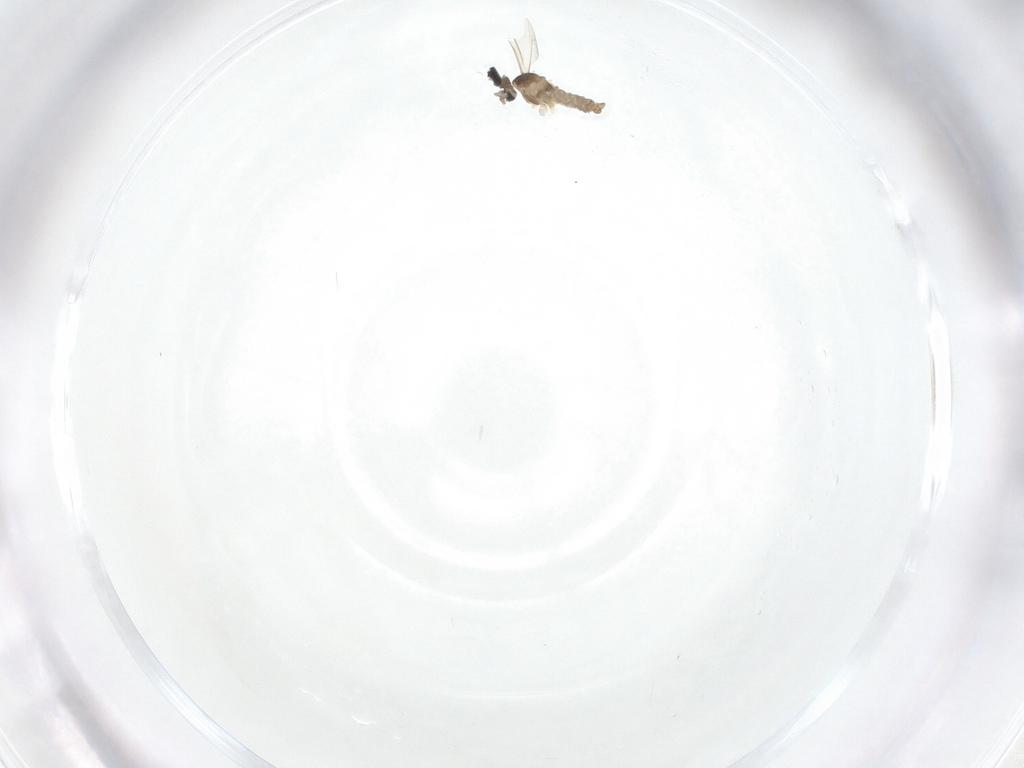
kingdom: Animalia
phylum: Arthropoda
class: Insecta
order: Diptera
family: Cecidomyiidae
